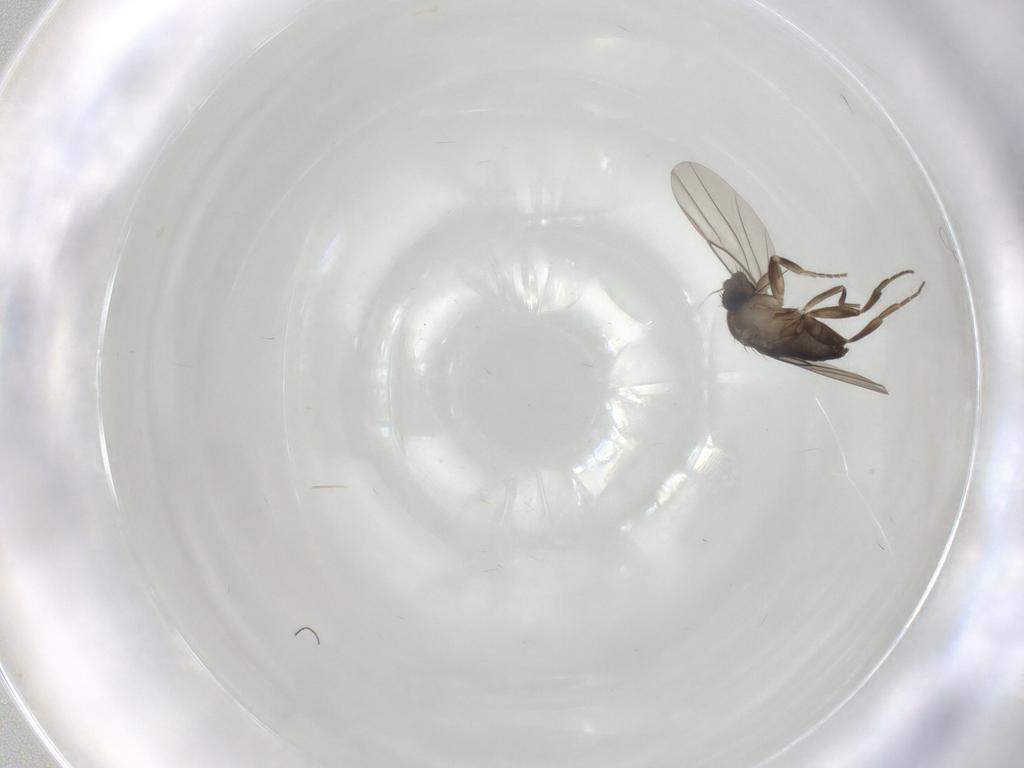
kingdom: Animalia
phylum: Arthropoda
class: Insecta
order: Diptera
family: Phoridae
